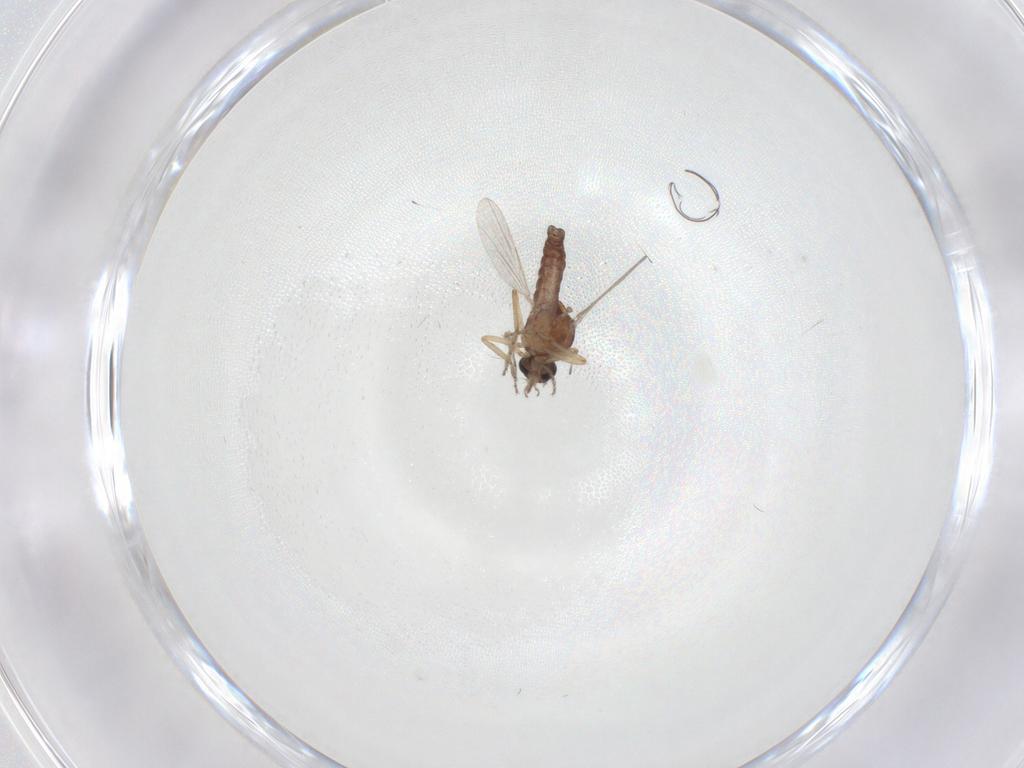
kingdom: Animalia
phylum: Arthropoda
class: Insecta
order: Diptera
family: Ceratopogonidae
